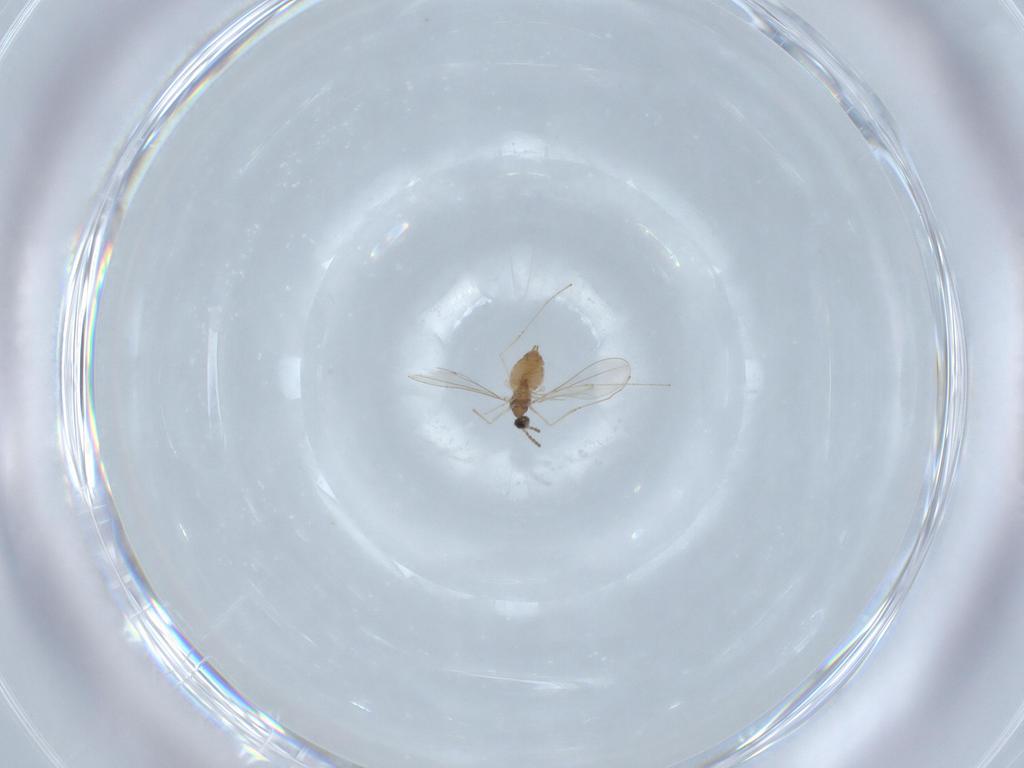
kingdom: Animalia
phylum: Arthropoda
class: Insecta
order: Diptera
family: Cecidomyiidae
